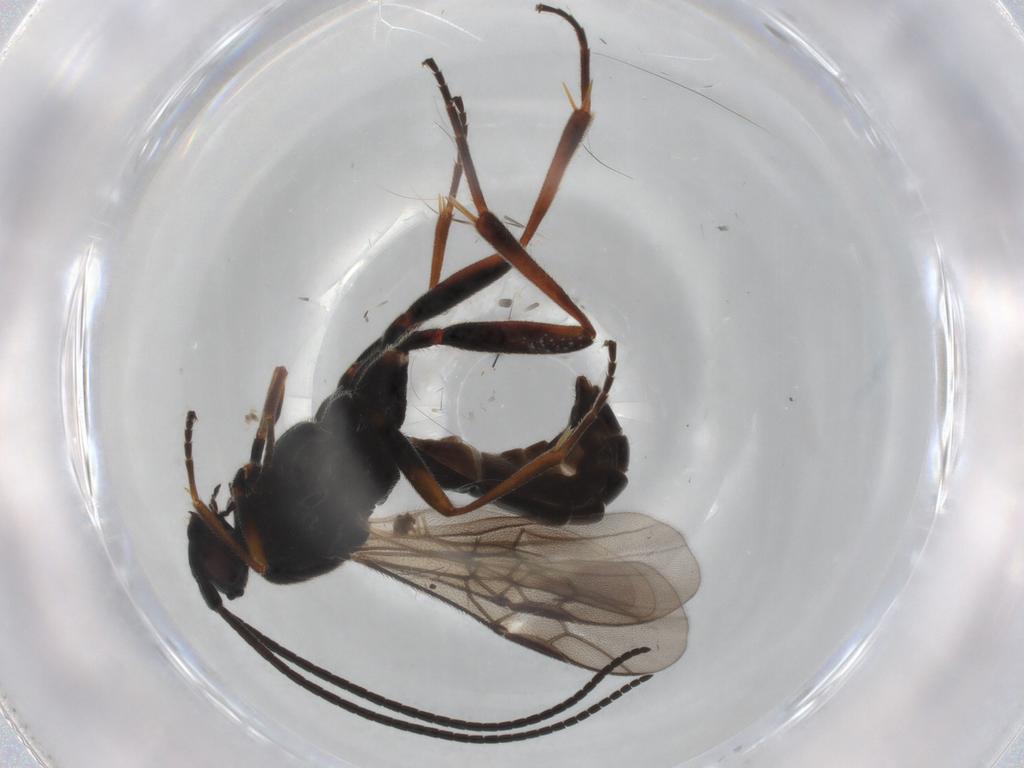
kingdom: Animalia
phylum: Arthropoda
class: Insecta
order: Hymenoptera
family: Braconidae
